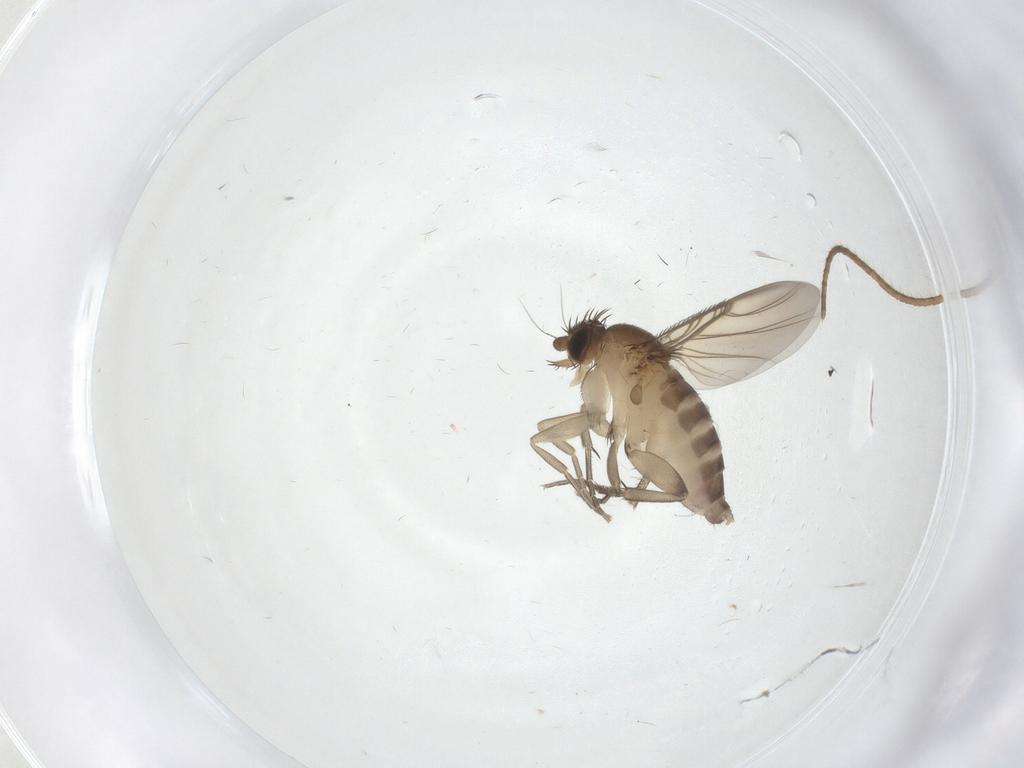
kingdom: Animalia
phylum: Arthropoda
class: Insecta
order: Diptera
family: Phoridae
